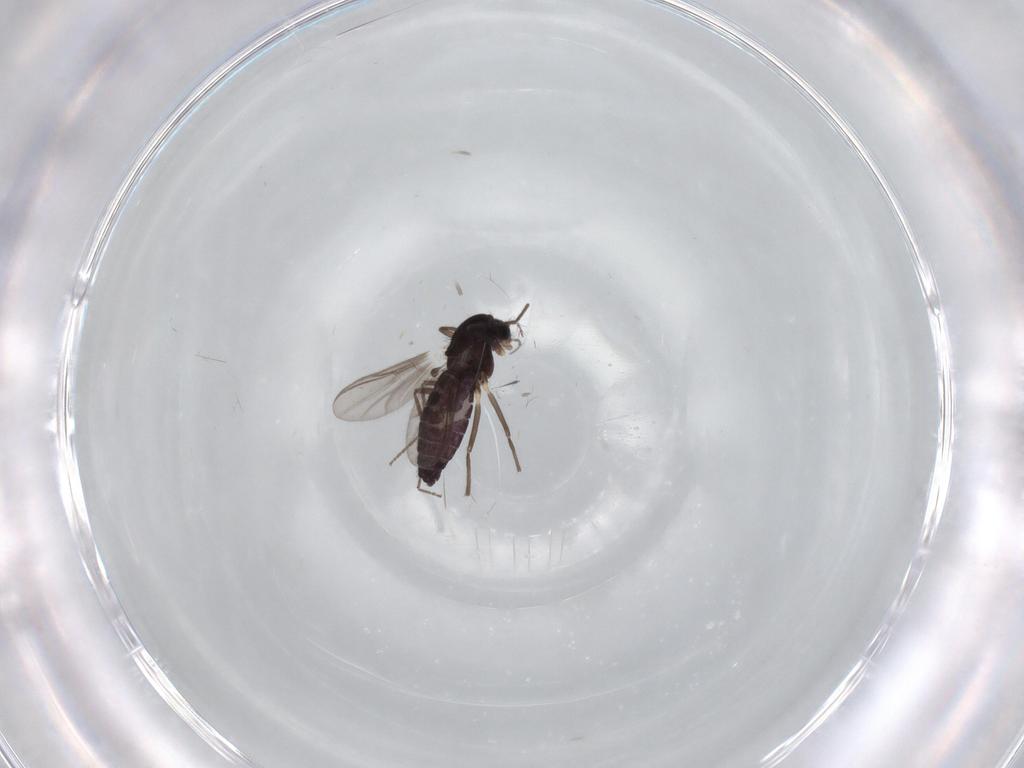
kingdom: Animalia
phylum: Arthropoda
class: Insecta
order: Diptera
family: Chironomidae
